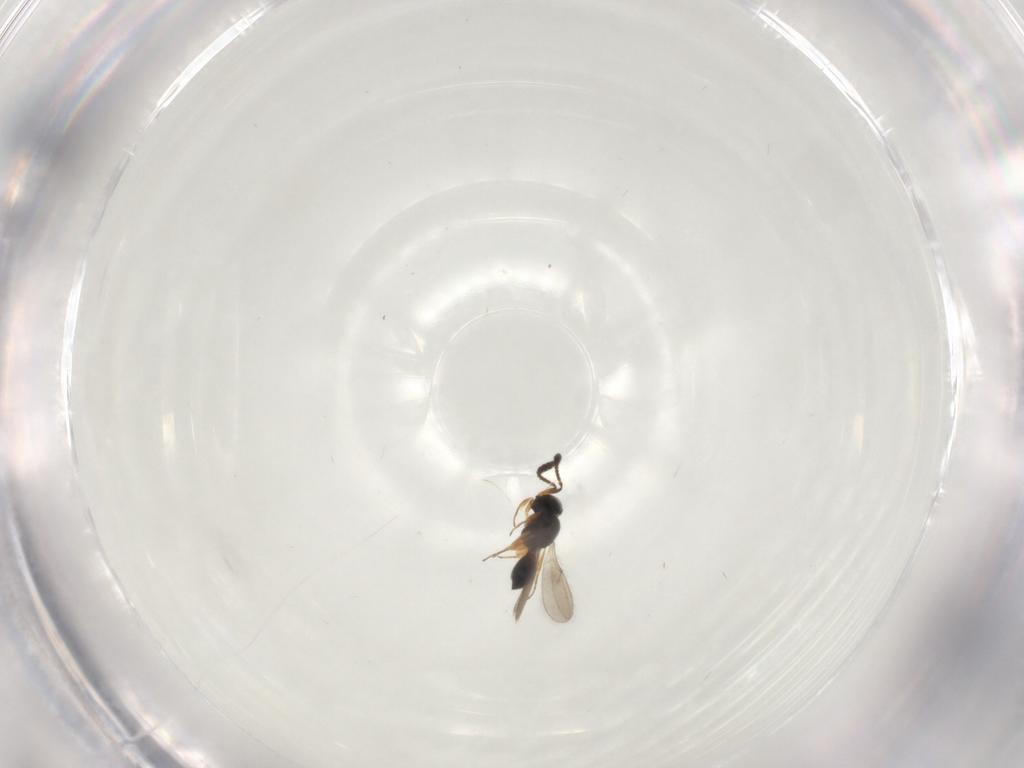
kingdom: Animalia
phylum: Arthropoda
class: Insecta
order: Hymenoptera
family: Scelionidae
